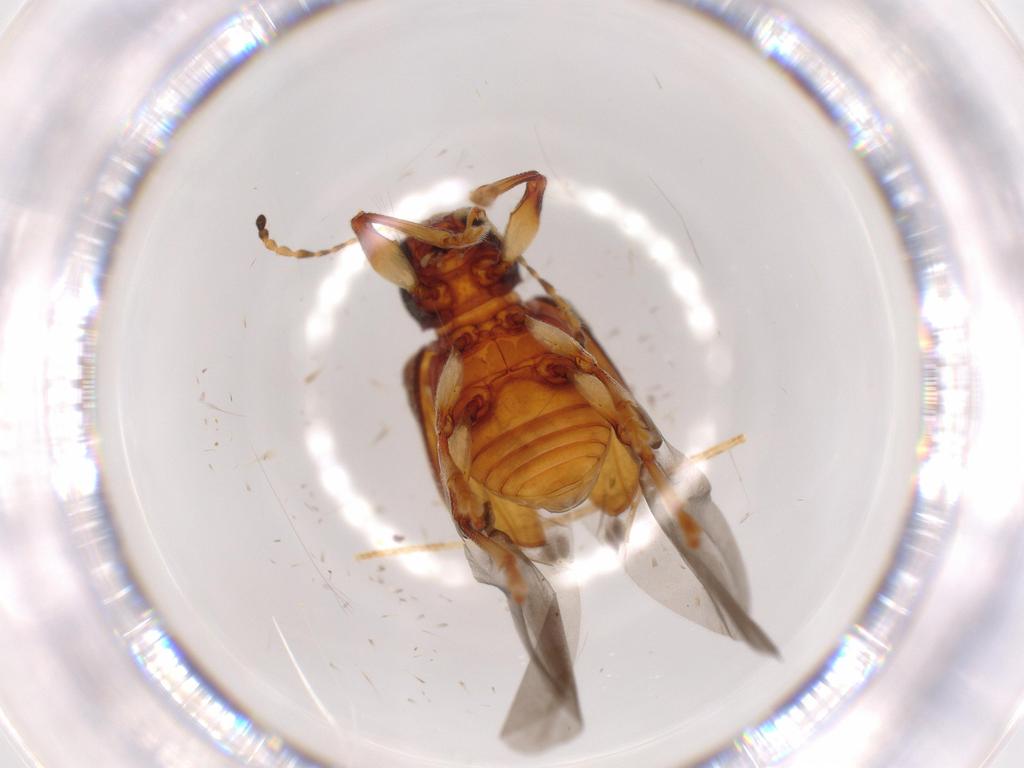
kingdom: Animalia
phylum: Arthropoda
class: Insecta
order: Coleoptera
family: Chrysomelidae
